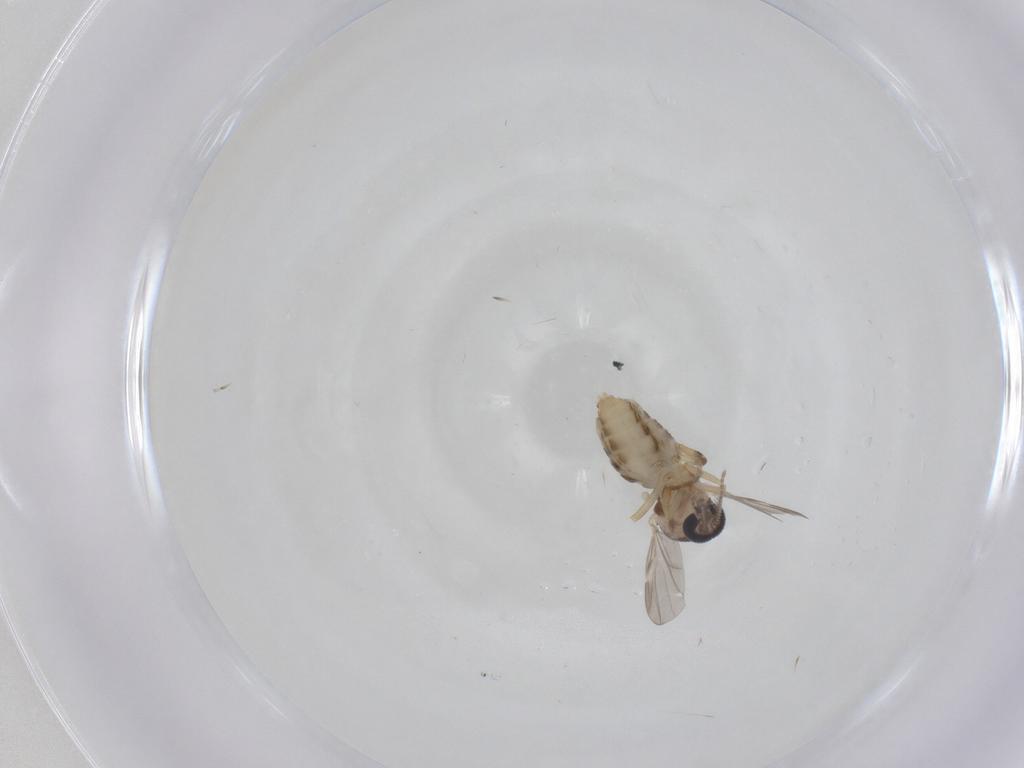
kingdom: Animalia
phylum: Arthropoda
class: Insecta
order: Diptera
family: Ceratopogonidae
